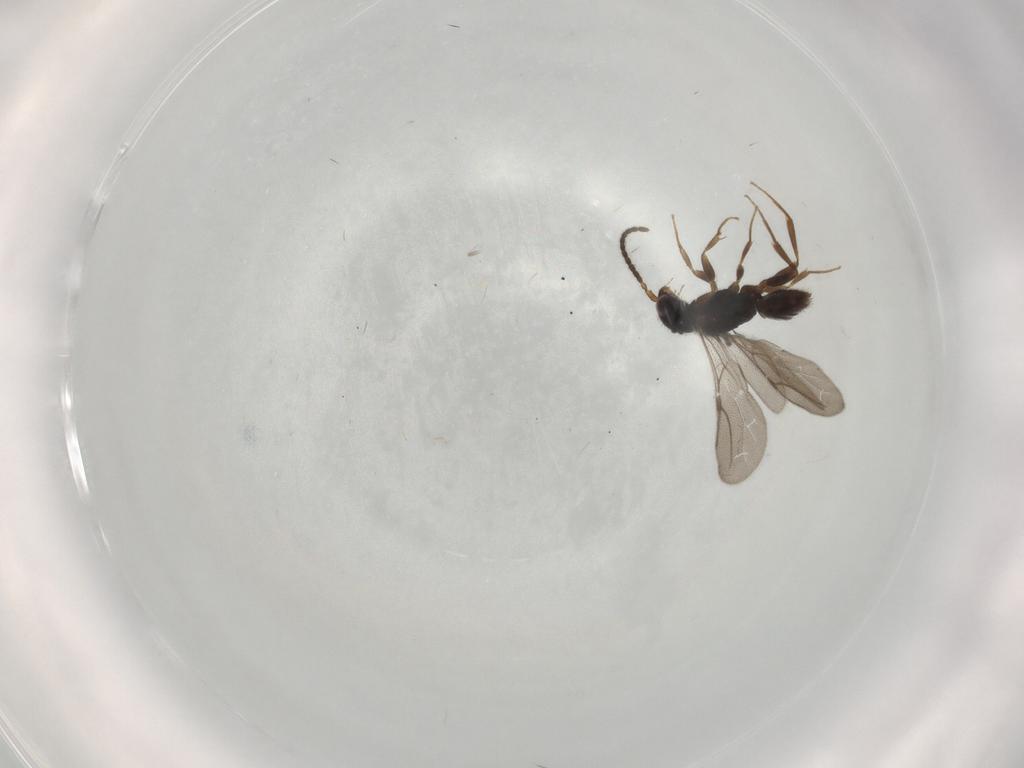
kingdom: Animalia
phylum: Arthropoda
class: Insecta
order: Hymenoptera
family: Bethylidae
